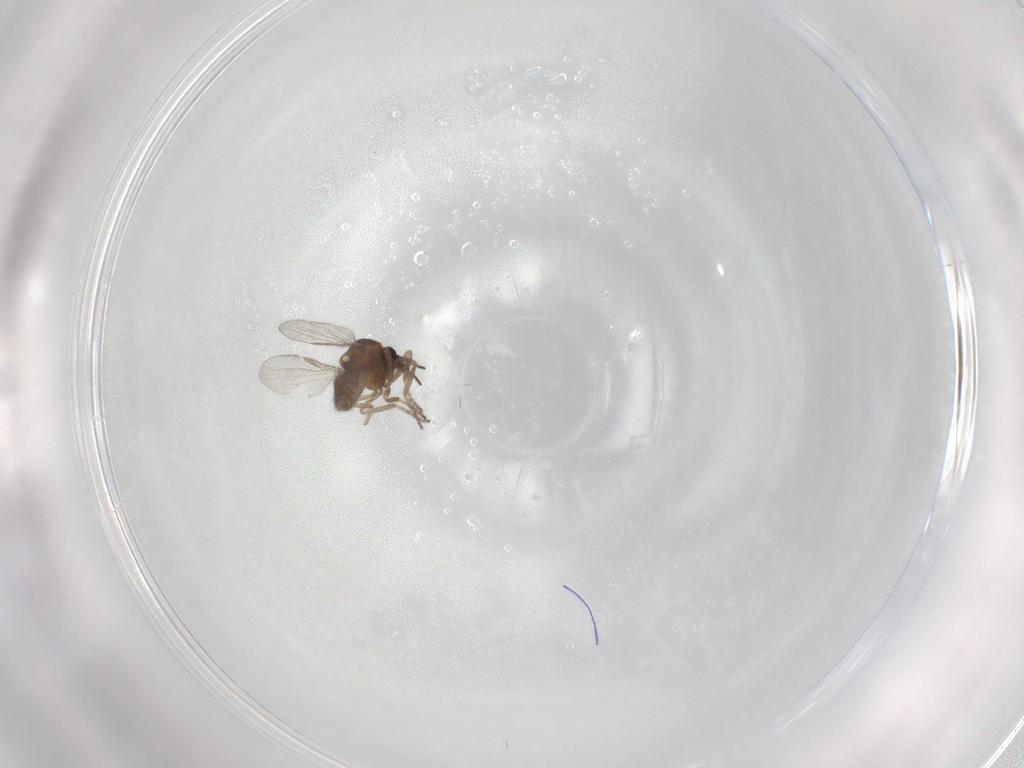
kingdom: Animalia
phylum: Arthropoda
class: Insecta
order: Diptera
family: Ceratopogonidae
